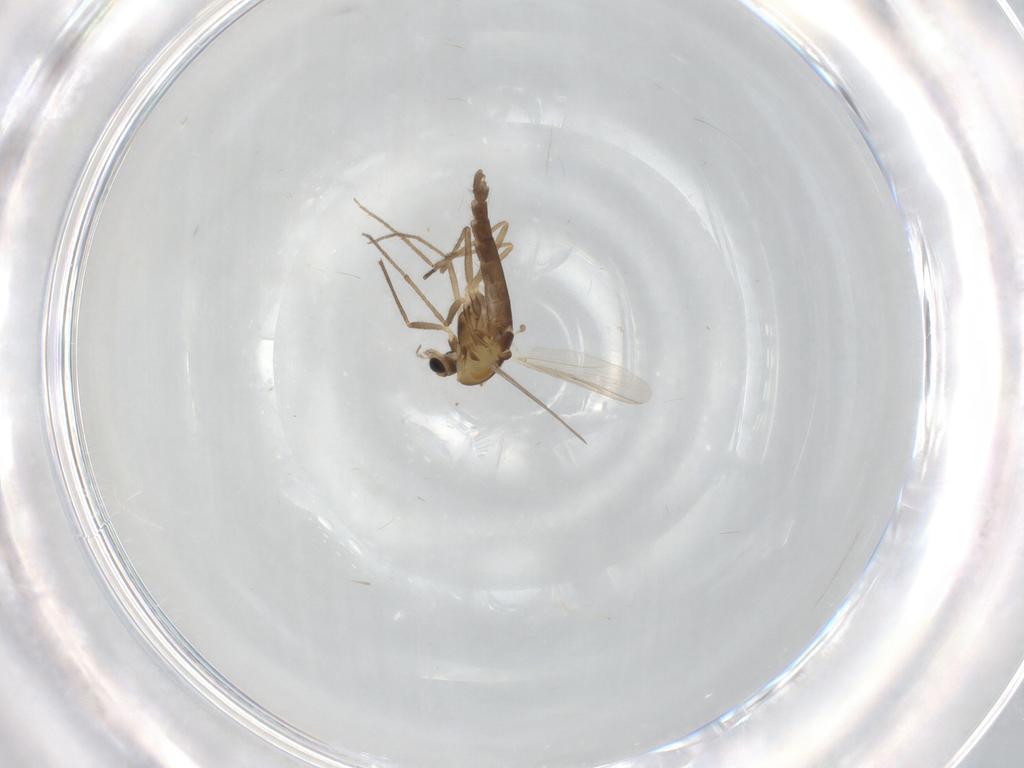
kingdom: Animalia
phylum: Arthropoda
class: Insecta
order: Diptera
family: Chironomidae
